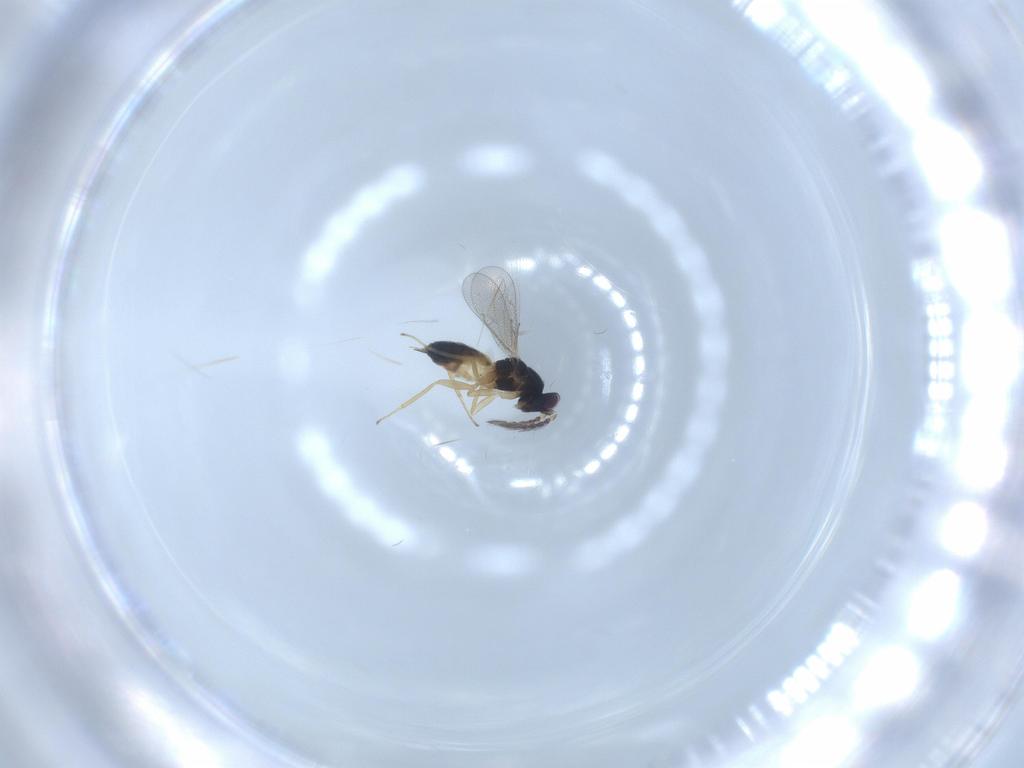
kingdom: Animalia
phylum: Arthropoda
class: Insecta
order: Hymenoptera
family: Eulophidae
